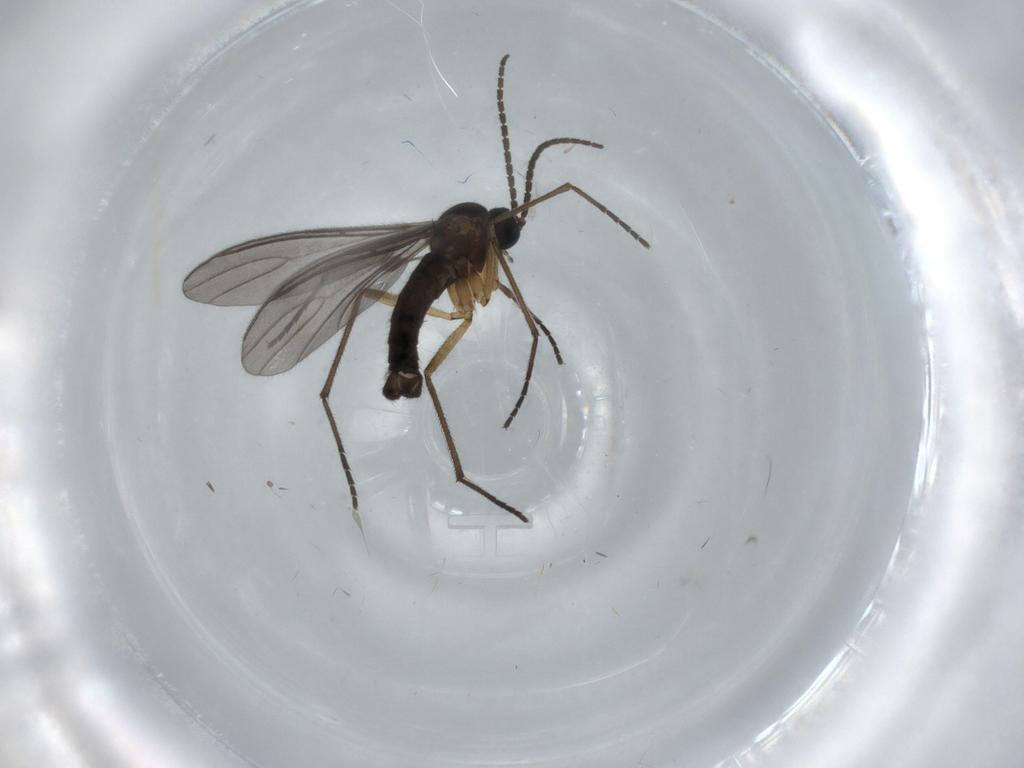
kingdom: Animalia
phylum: Arthropoda
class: Insecta
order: Diptera
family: Sciaridae
